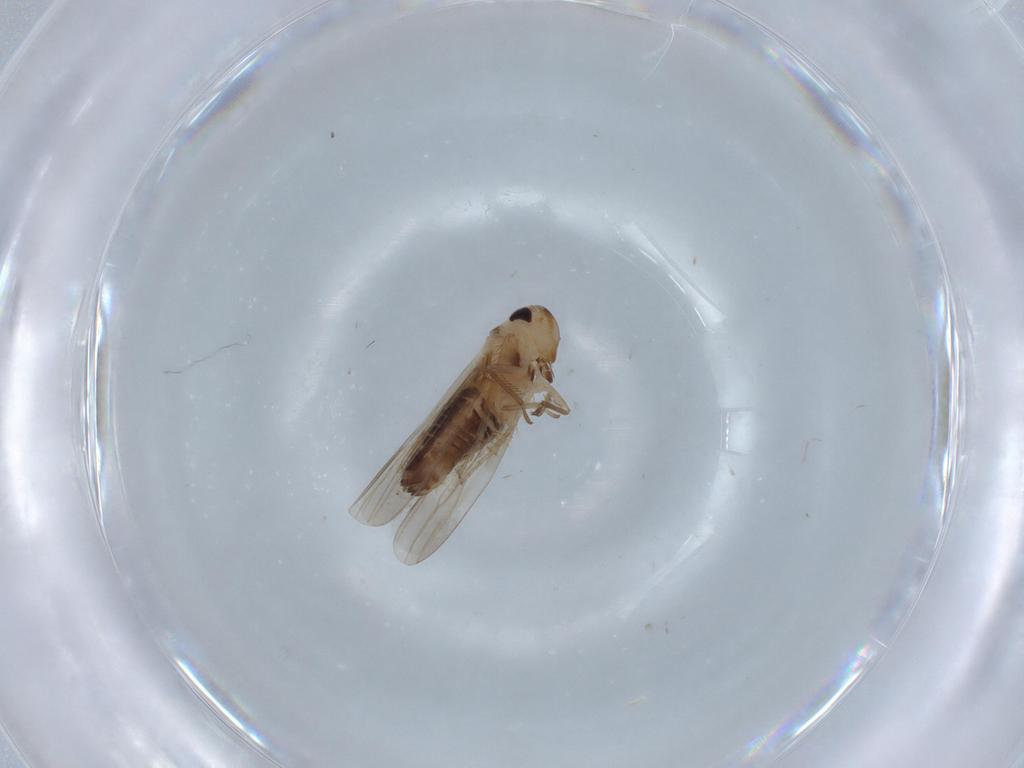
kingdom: Animalia
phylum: Arthropoda
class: Insecta
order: Hemiptera
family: Cicadellidae
